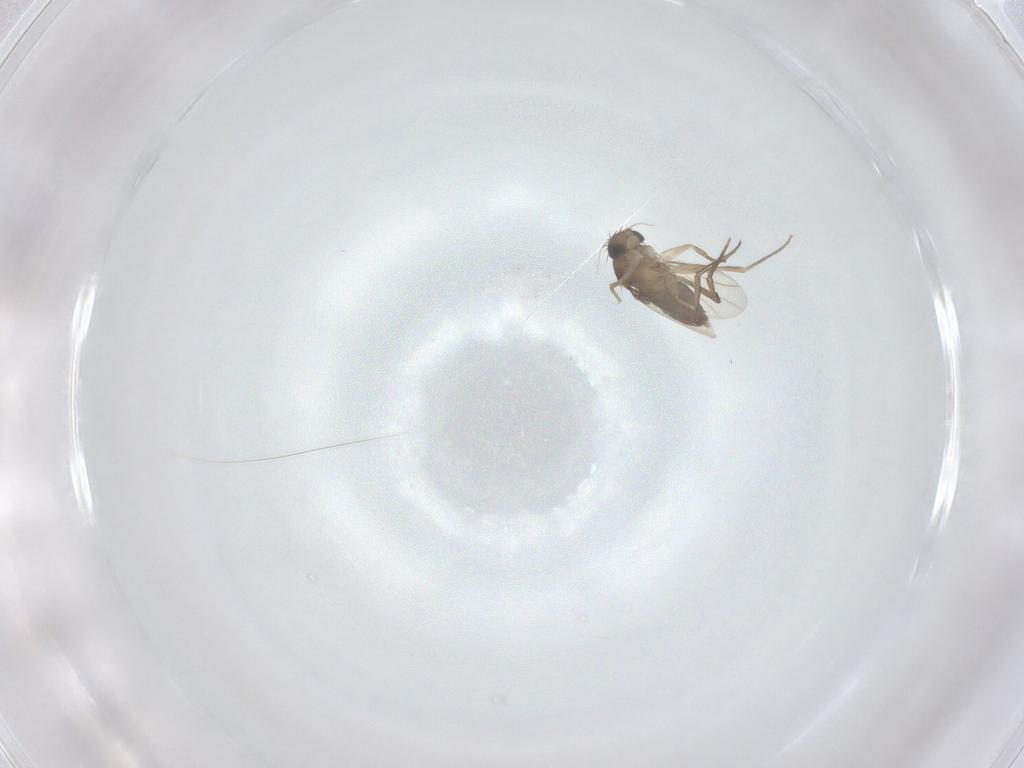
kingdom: Animalia
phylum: Arthropoda
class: Insecta
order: Diptera
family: Phoridae
